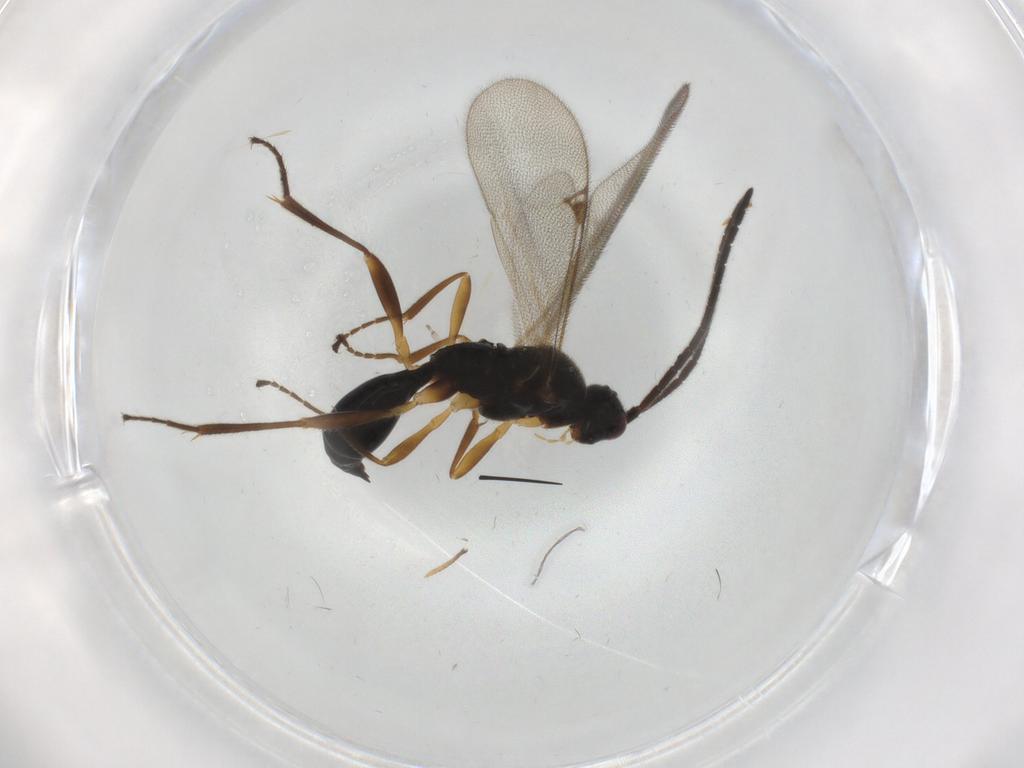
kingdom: Animalia
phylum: Arthropoda
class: Insecta
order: Hymenoptera
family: Proctotrupidae
